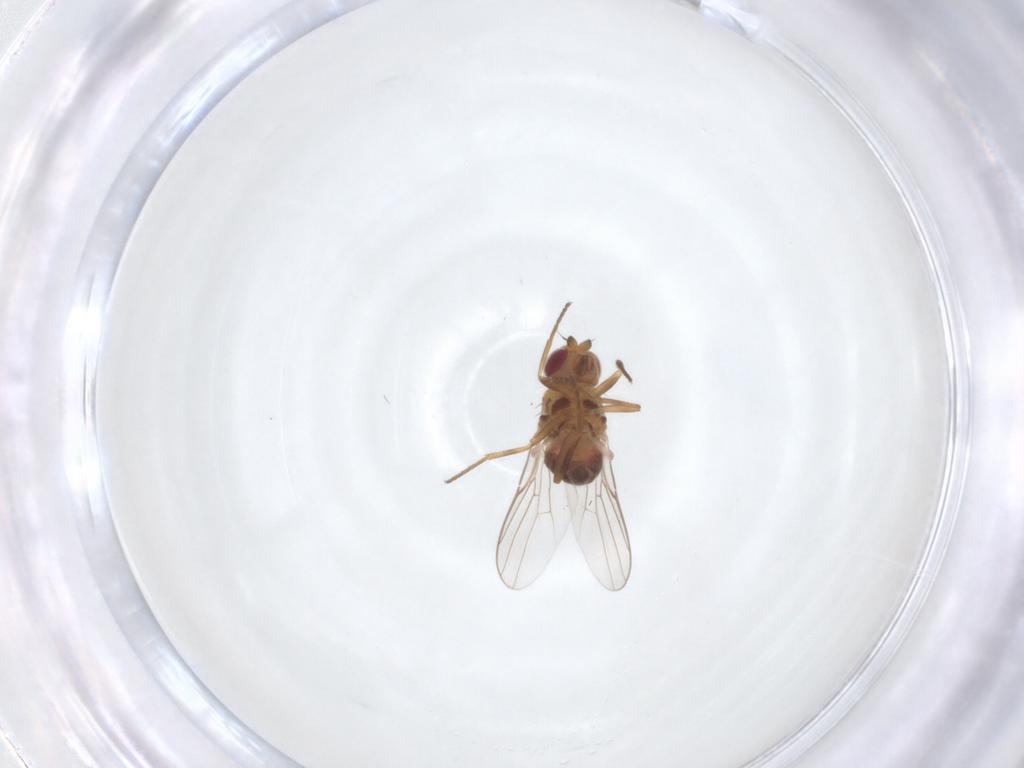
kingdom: Animalia
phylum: Arthropoda
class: Insecta
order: Diptera
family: Chloropidae
